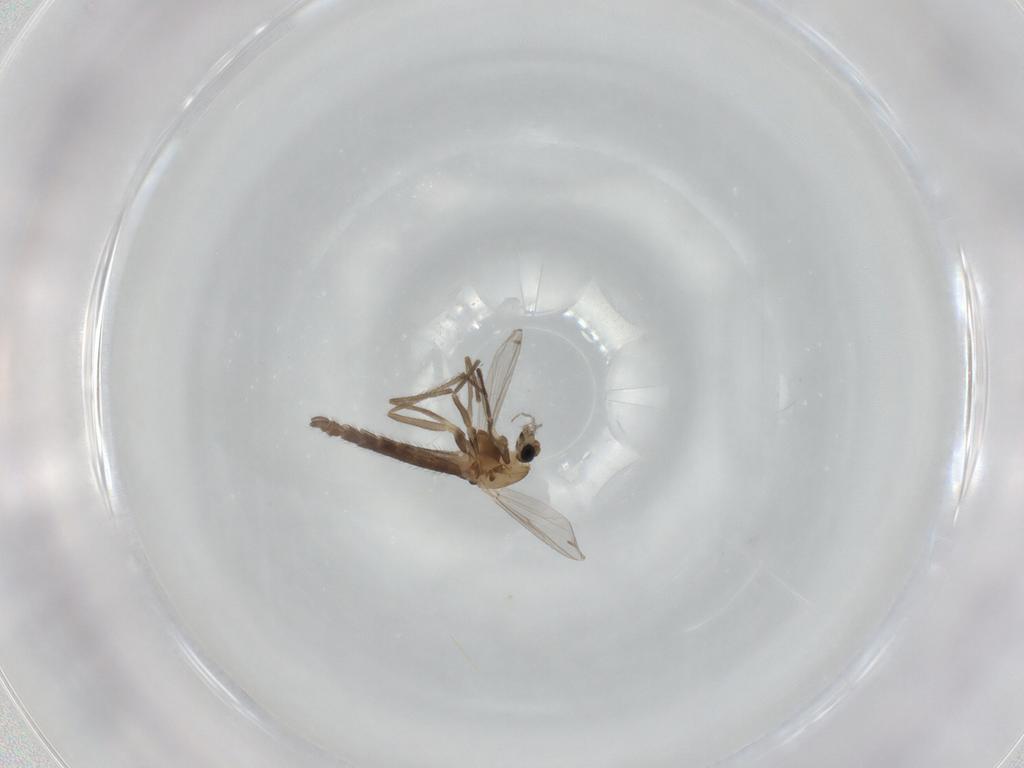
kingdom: Animalia
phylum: Arthropoda
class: Insecta
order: Diptera
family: Chironomidae
